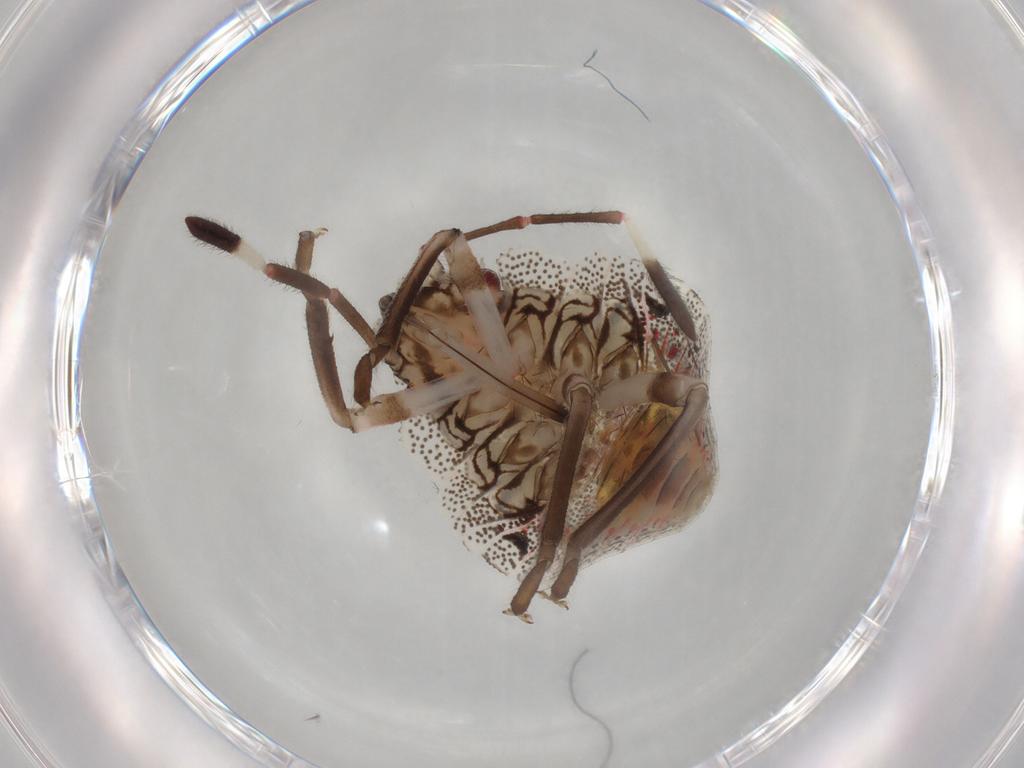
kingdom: Animalia
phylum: Arthropoda
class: Insecta
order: Hemiptera
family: Pentatomidae
